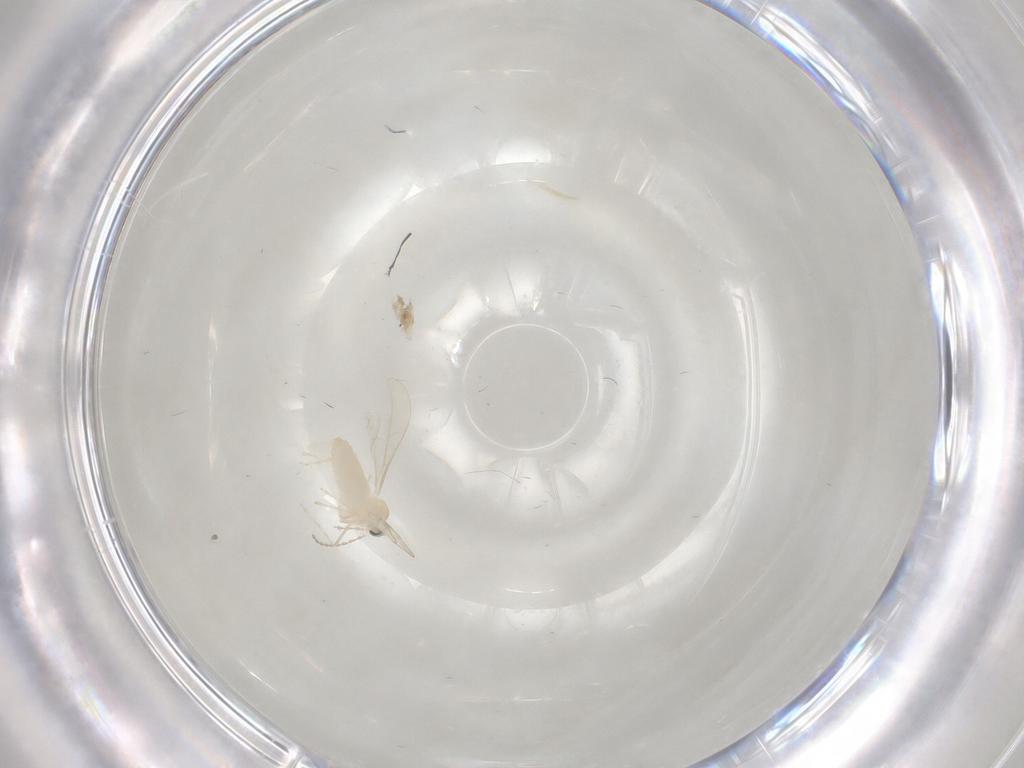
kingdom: Animalia
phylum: Arthropoda
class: Insecta
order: Diptera
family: Cecidomyiidae
